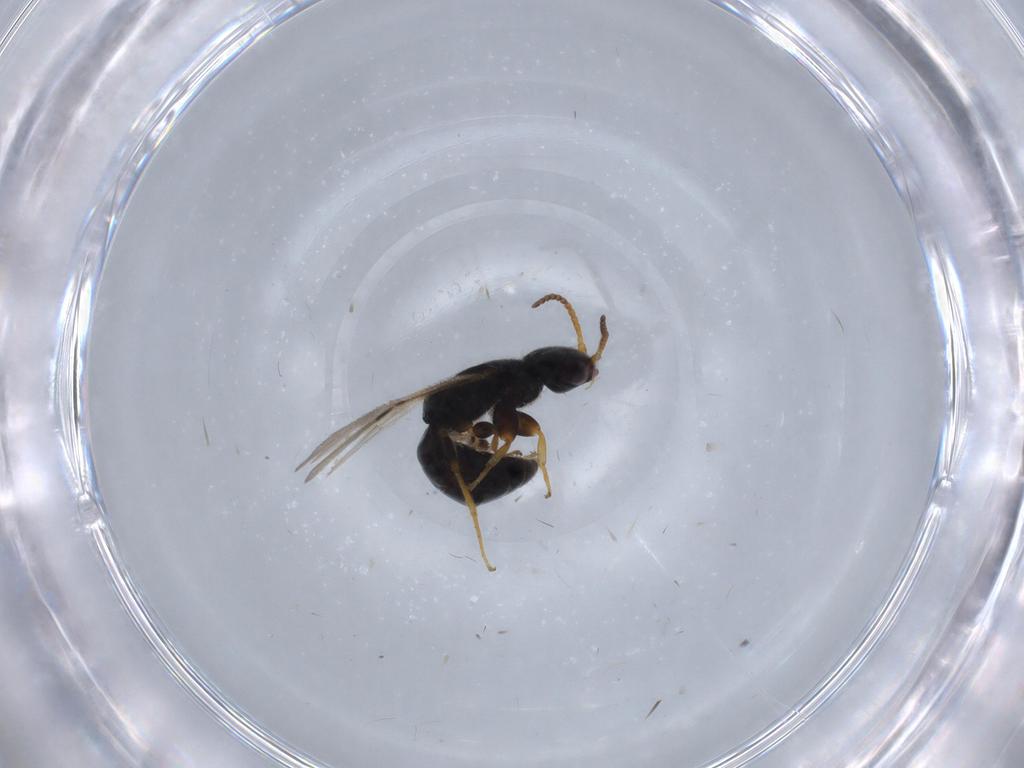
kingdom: Animalia
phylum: Arthropoda
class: Insecta
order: Hymenoptera
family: Bethylidae
